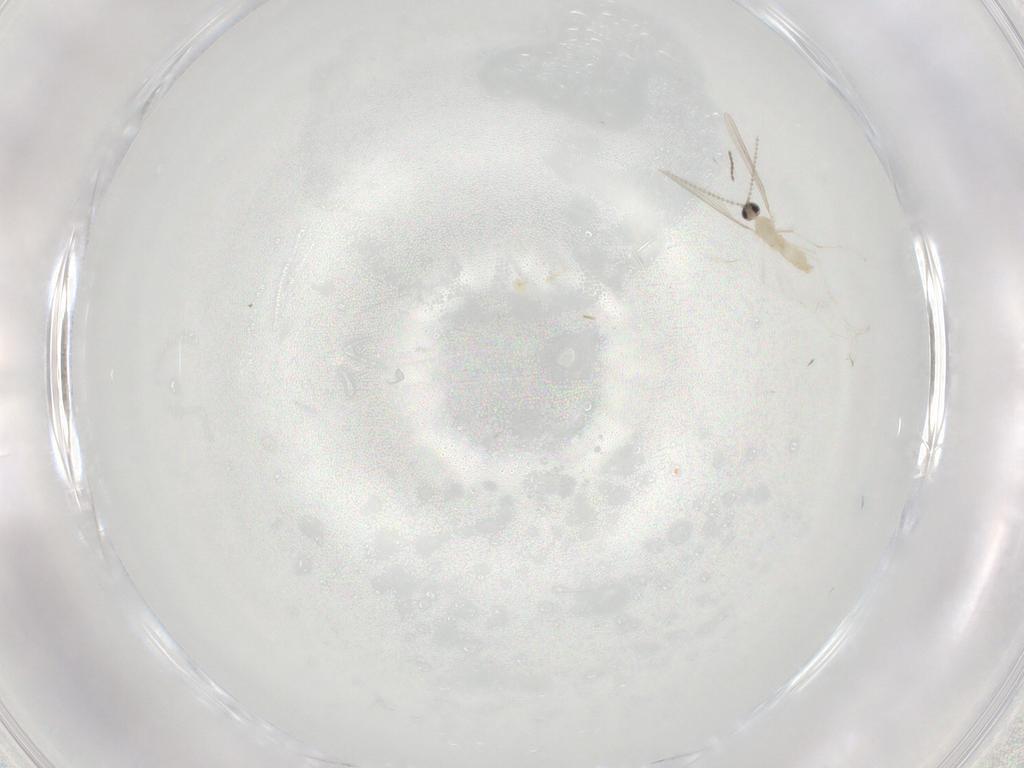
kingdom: Animalia
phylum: Arthropoda
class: Insecta
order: Diptera
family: Cecidomyiidae
